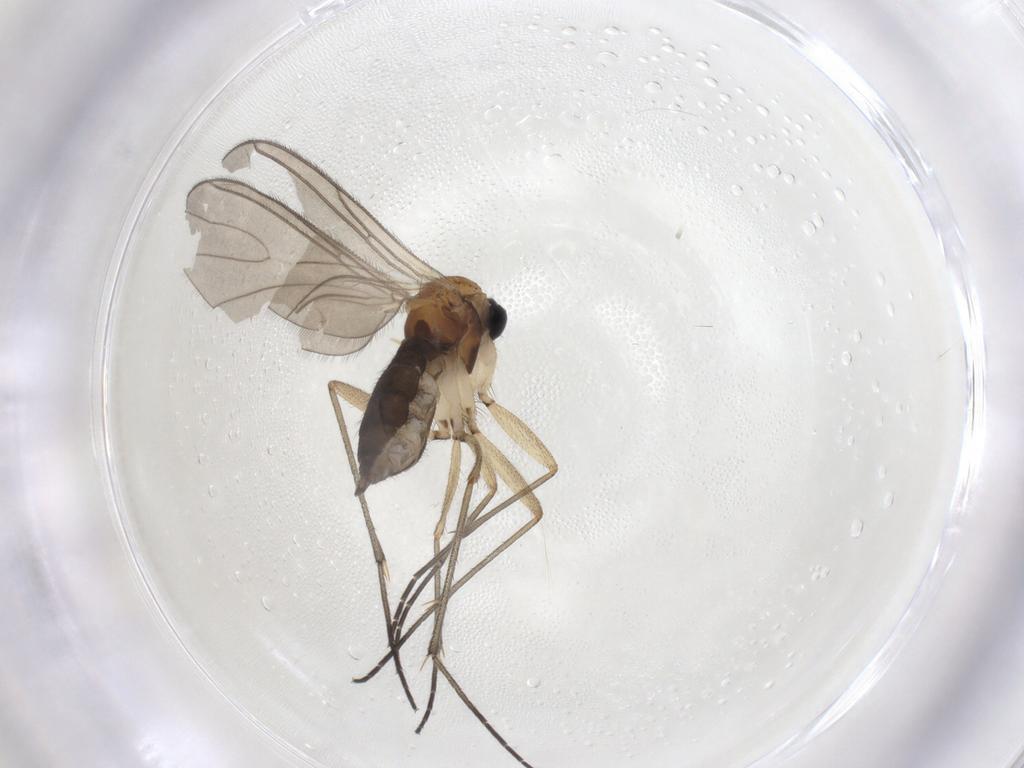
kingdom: Animalia
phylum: Arthropoda
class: Insecta
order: Diptera
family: Sciaridae
